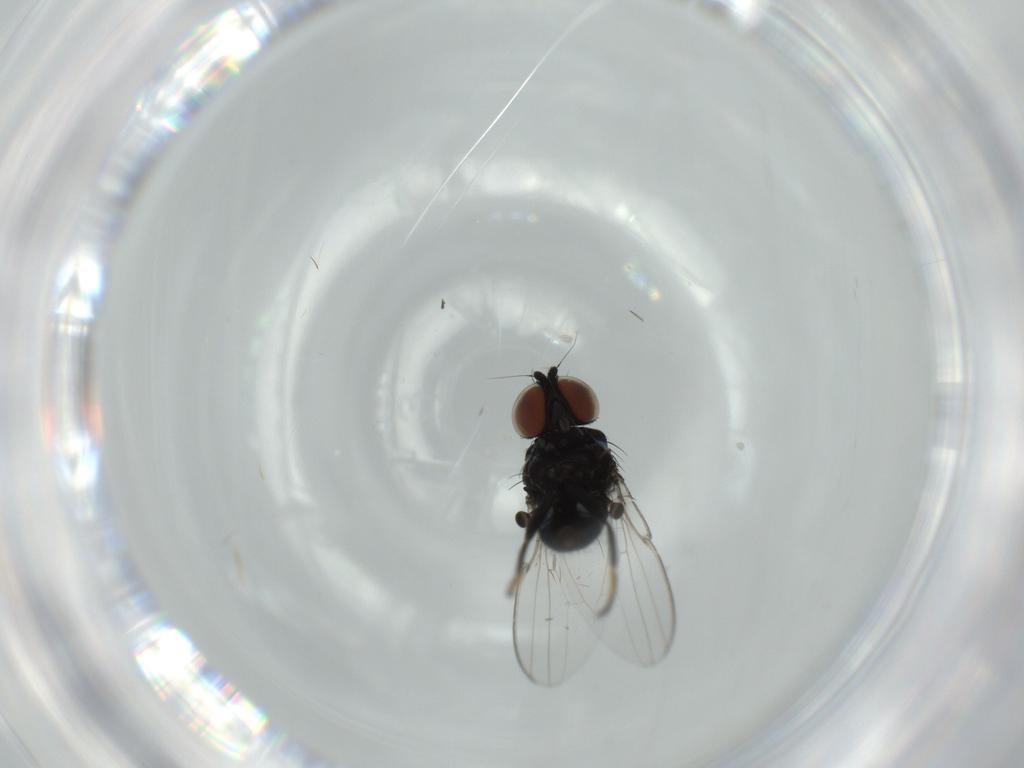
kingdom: Animalia
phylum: Arthropoda
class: Insecta
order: Diptera
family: Milichiidae
